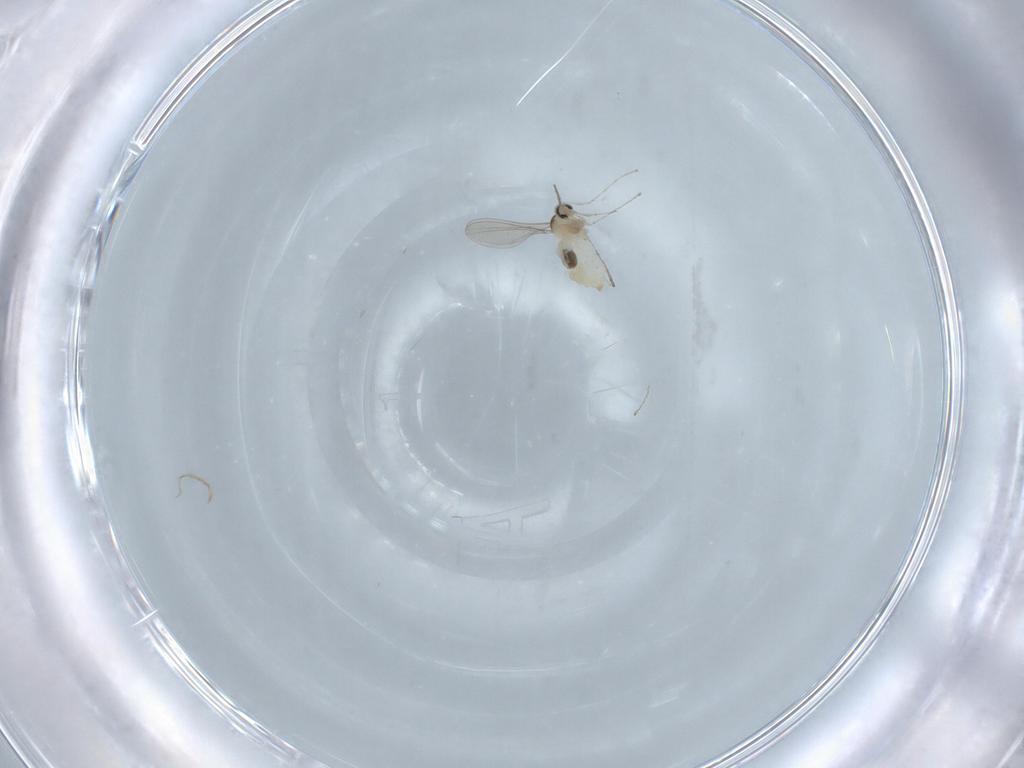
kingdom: Animalia
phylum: Arthropoda
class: Insecta
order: Diptera
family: Cecidomyiidae
